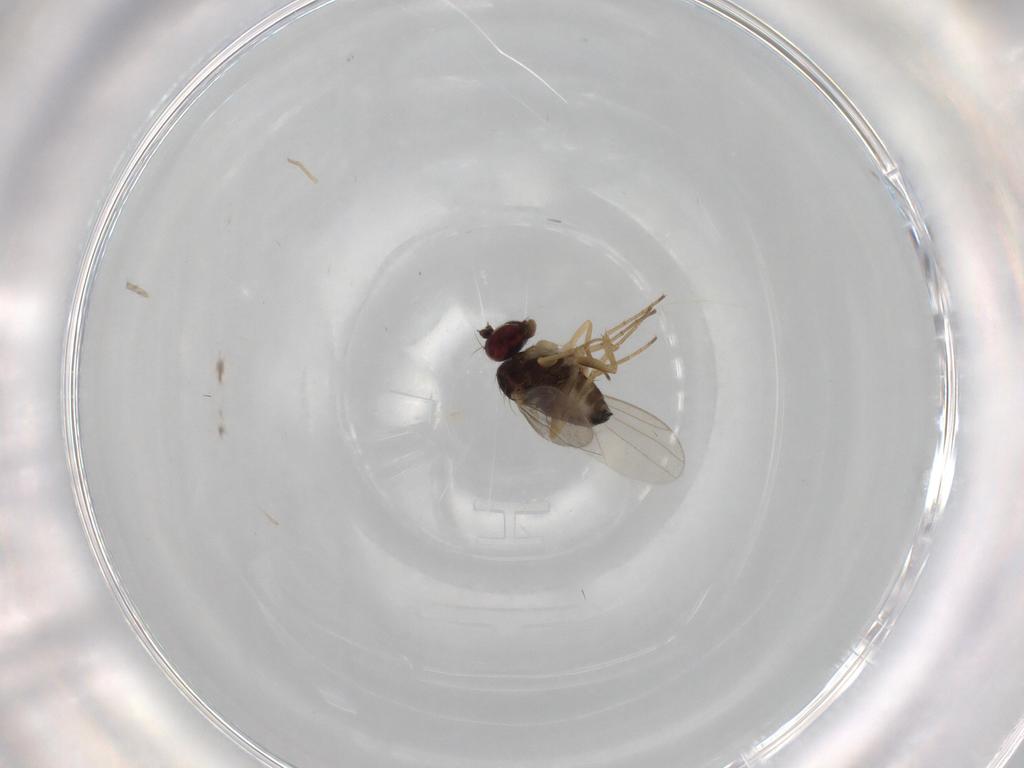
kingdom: Animalia
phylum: Arthropoda
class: Insecta
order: Diptera
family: Dolichopodidae
